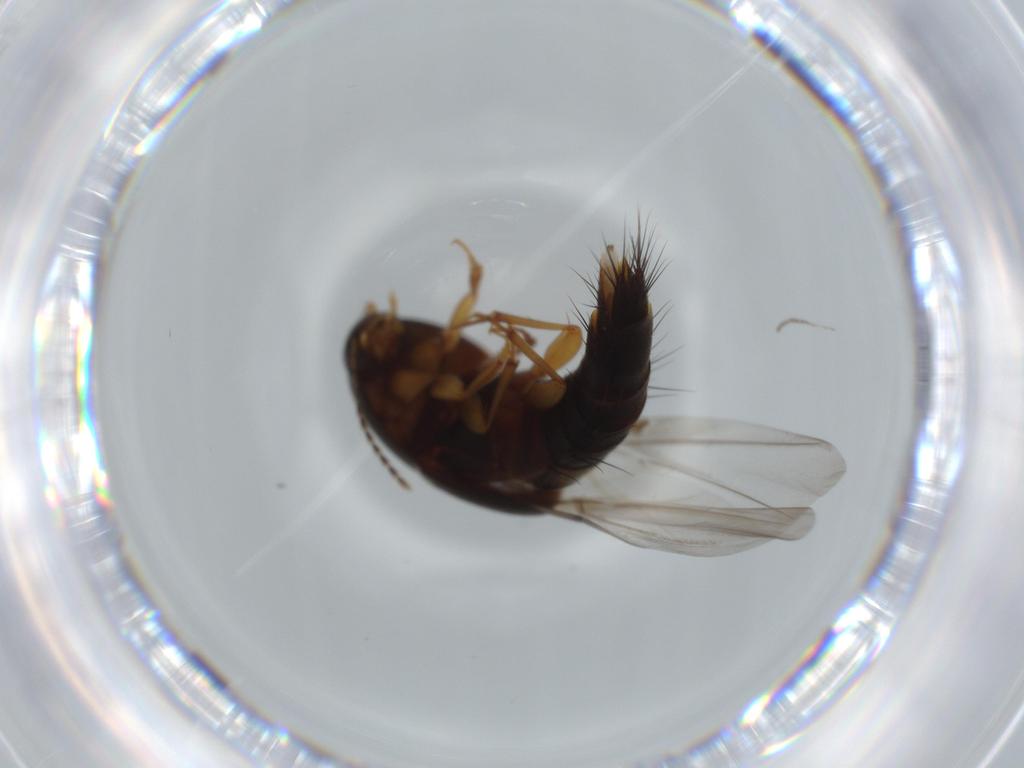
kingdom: Animalia
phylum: Arthropoda
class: Insecta
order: Coleoptera
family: Staphylinidae
